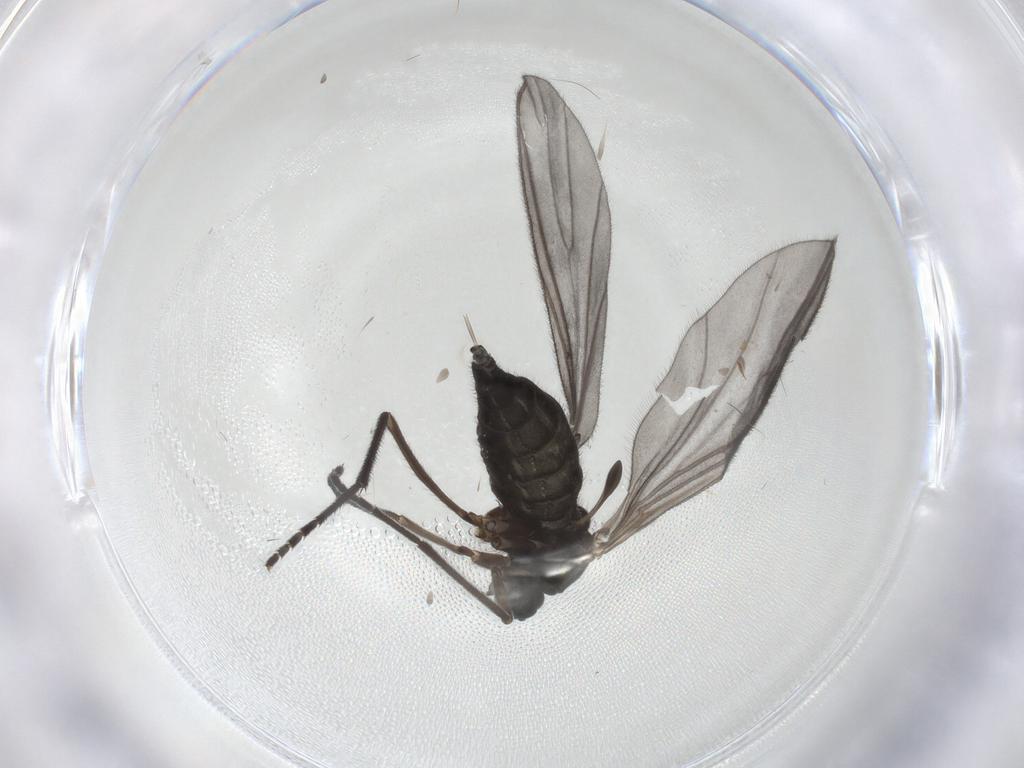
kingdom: Animalia
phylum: Arthropoda
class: Insecta
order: Diptera
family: Sciaridae
